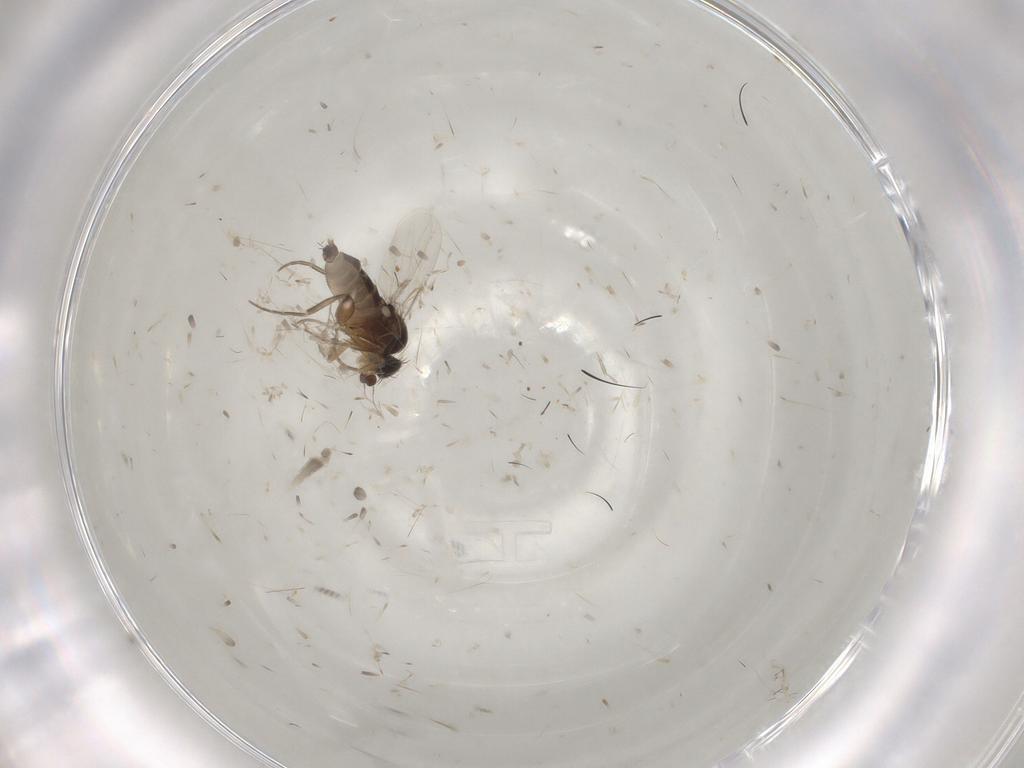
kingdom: Animalia
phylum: Arthropoda
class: Insecta
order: Diptera
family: Phoridae
